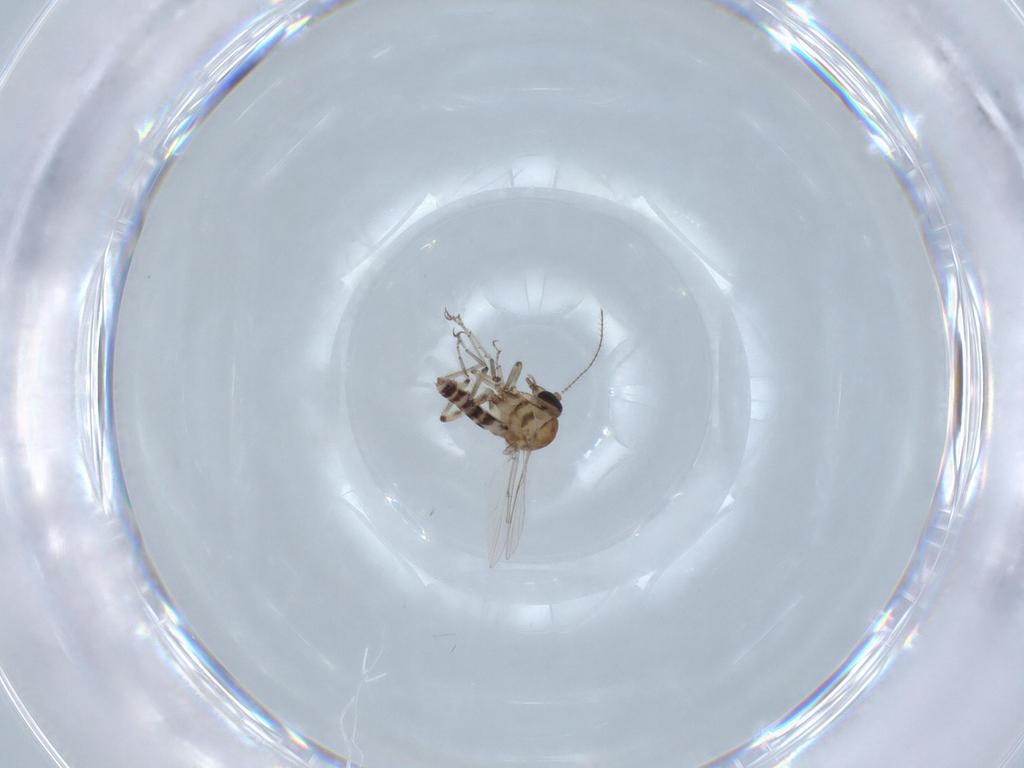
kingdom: Animalia
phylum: Arthropoda
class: Insecta
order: Diptera
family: Ceratopogonidae
